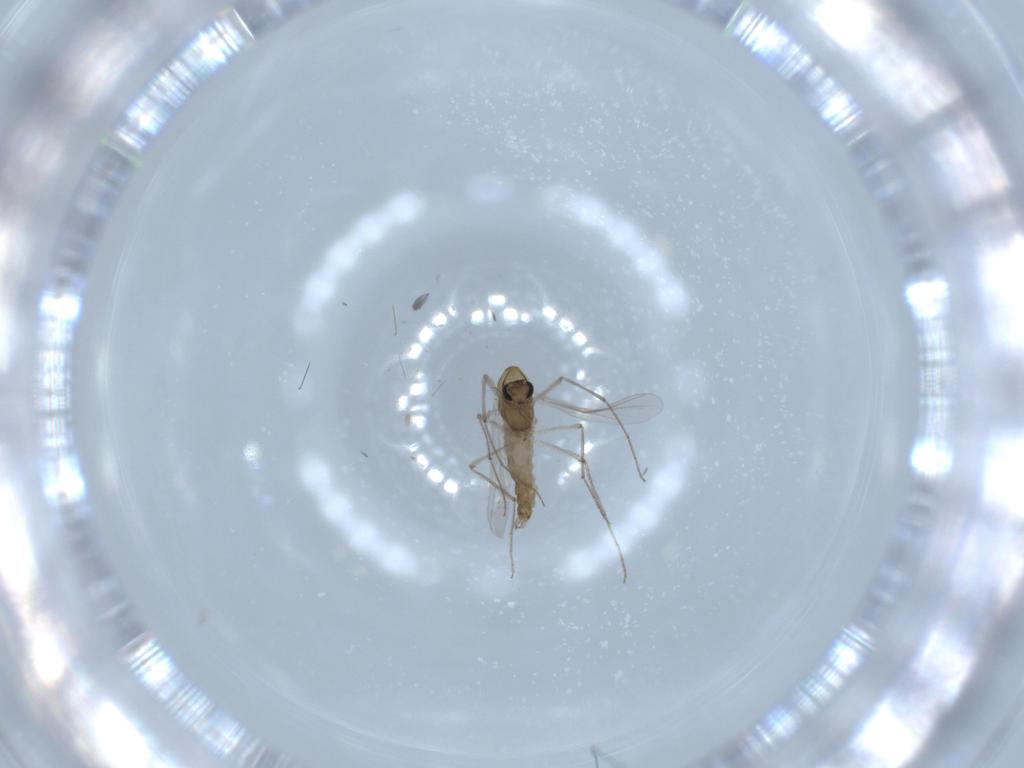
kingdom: Animalia
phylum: Arthropoda
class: Insecta
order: Diptera
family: Chironomidae
